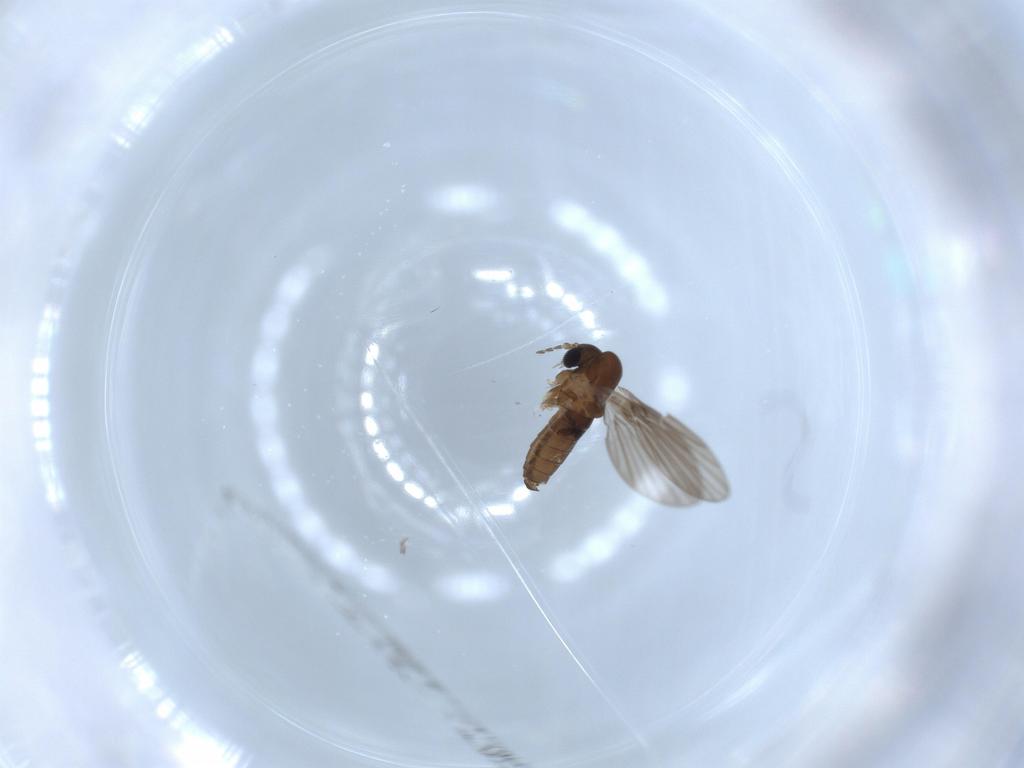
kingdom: Animalia
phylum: Arthropoda
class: Insecta
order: Diptera
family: Psychodidae
